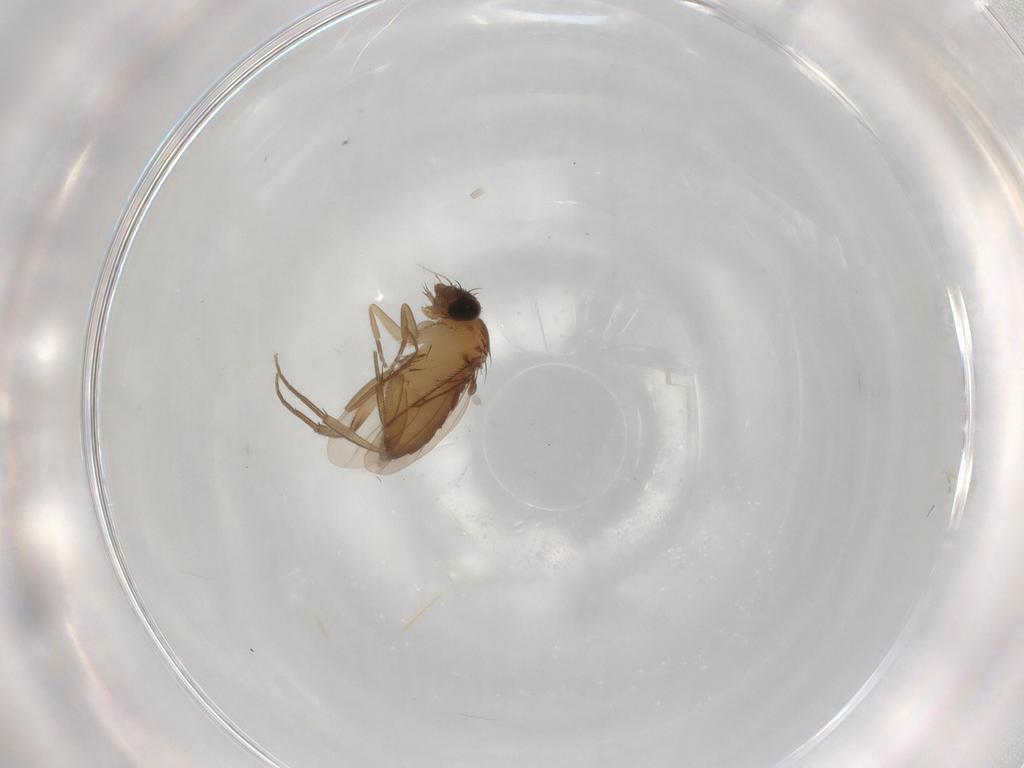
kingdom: Animalia
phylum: Arthropoda
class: Insecta
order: Diptera
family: Phoridae
